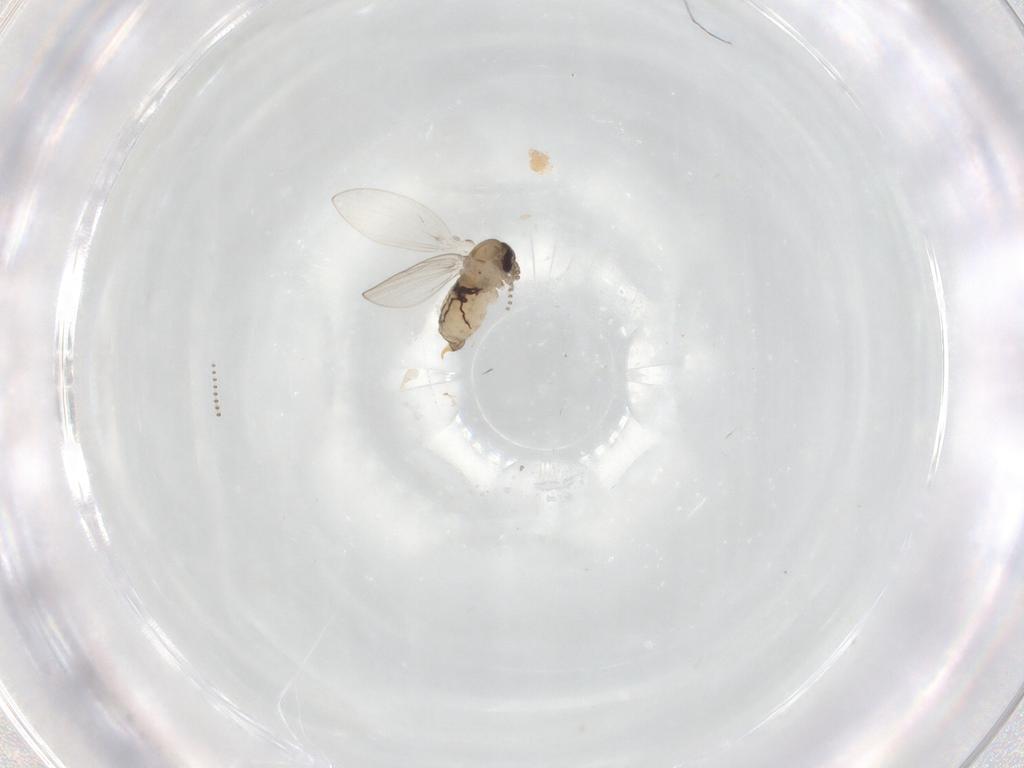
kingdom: Animalia
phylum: Arthropoda
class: Insecta
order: Diptera
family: Psychodidae
